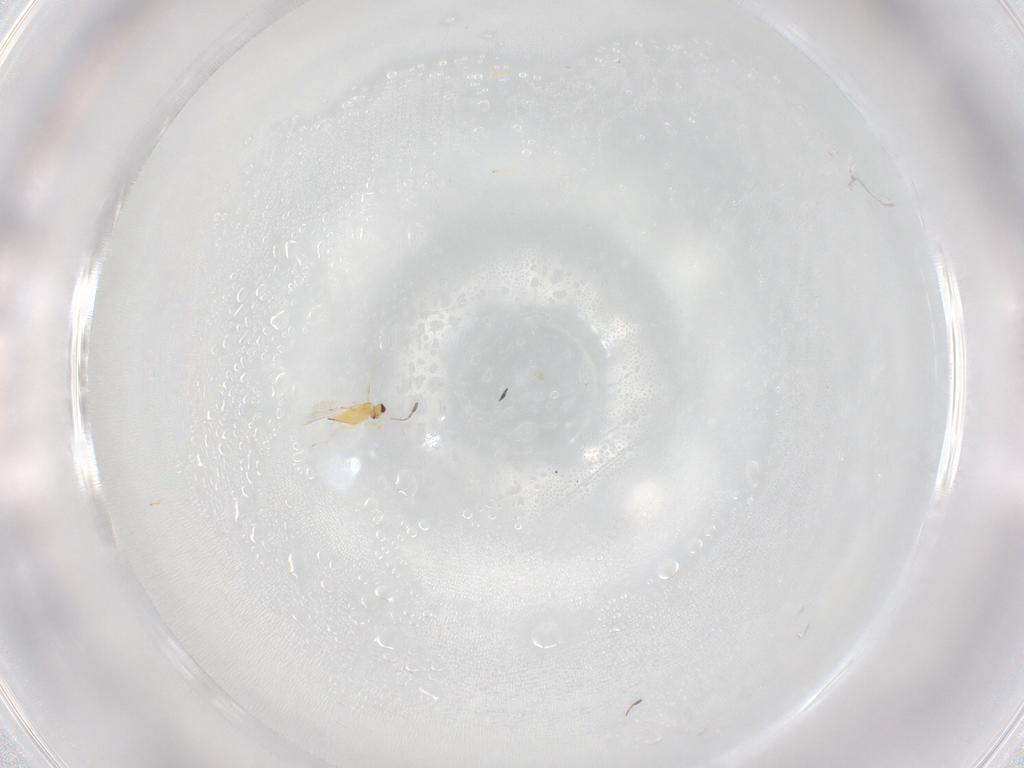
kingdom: Animalia
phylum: Arthropoda
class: Insecta
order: Hymenoptera
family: Mymaridae
